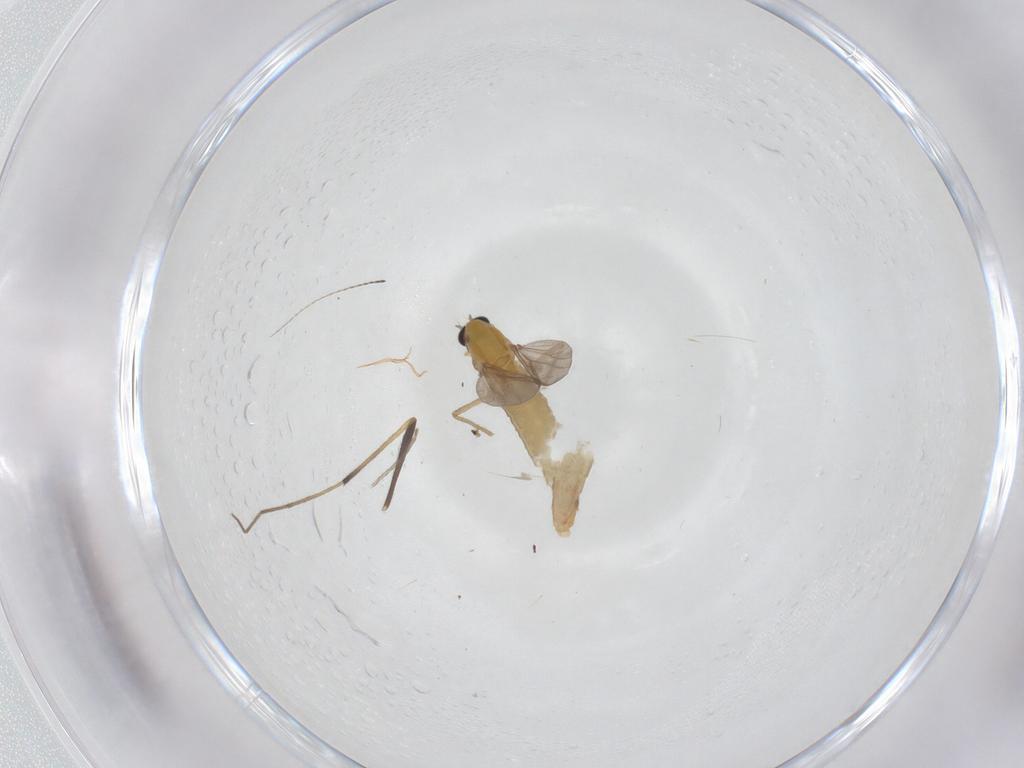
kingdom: Animalia
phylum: Arthropoda
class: Insecta
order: Diptera
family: Chironomidae
